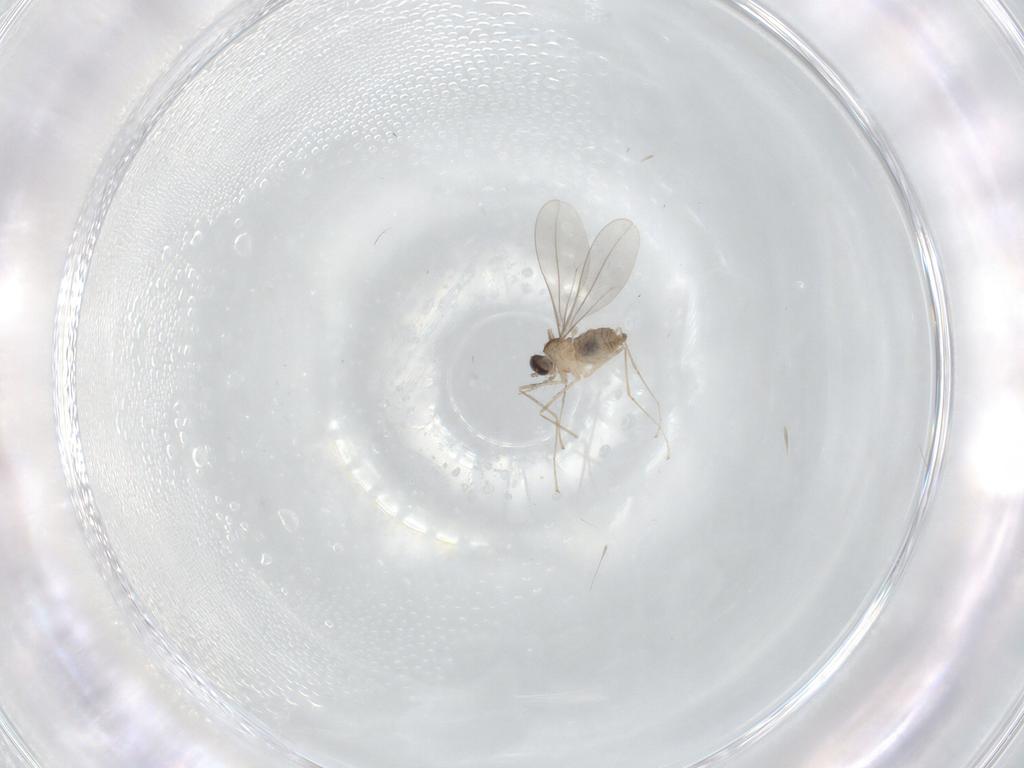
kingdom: Animalia
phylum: Arthropoda
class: Insecta
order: Diptera
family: Cecidomyiidae
